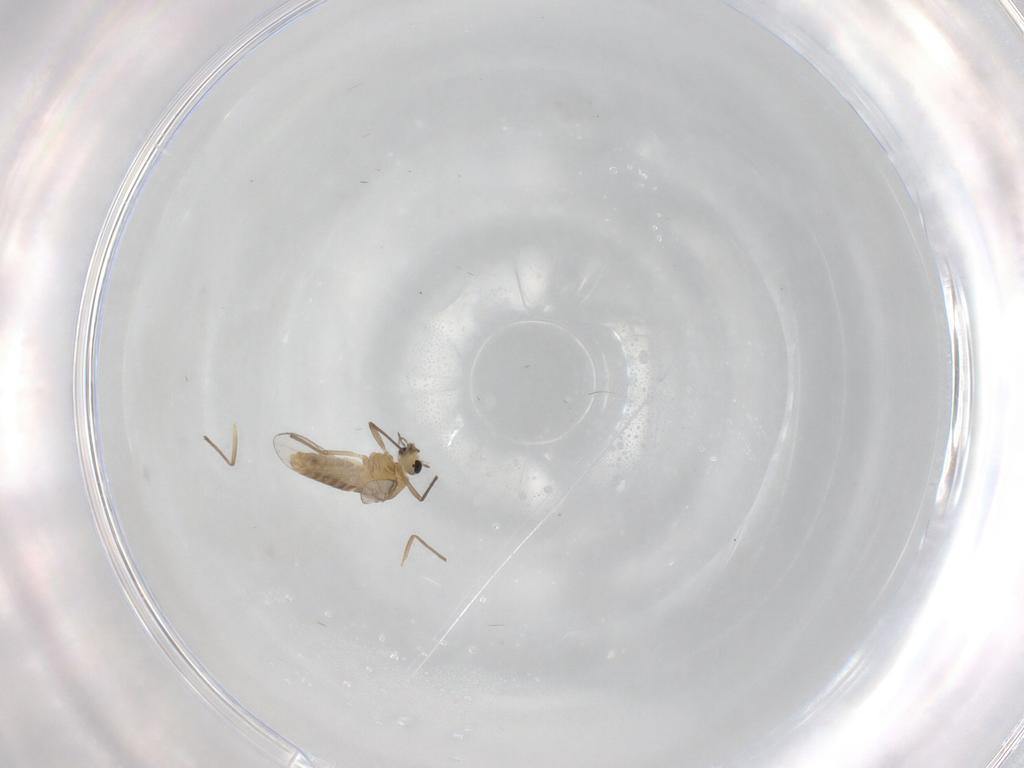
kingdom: Animalia
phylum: Arthropoda
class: Insecta
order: Diptera
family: Chironomidae
